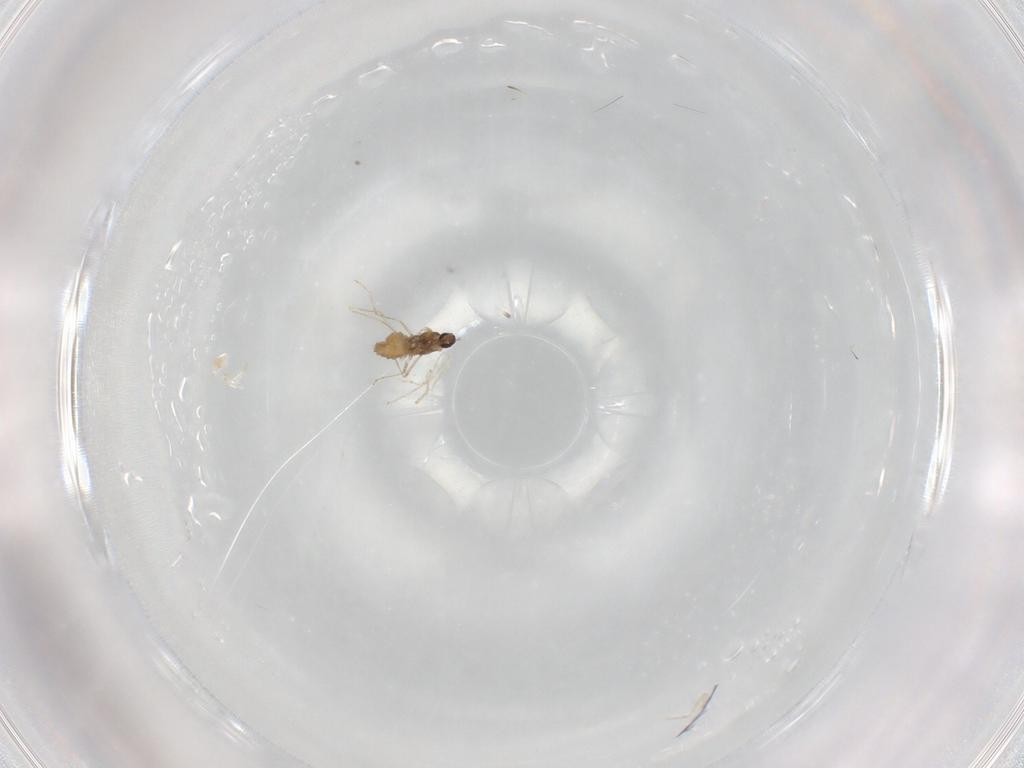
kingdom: Animalia
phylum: Arthropoda
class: Insecta
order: Diptera
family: Cecidomyiidae
